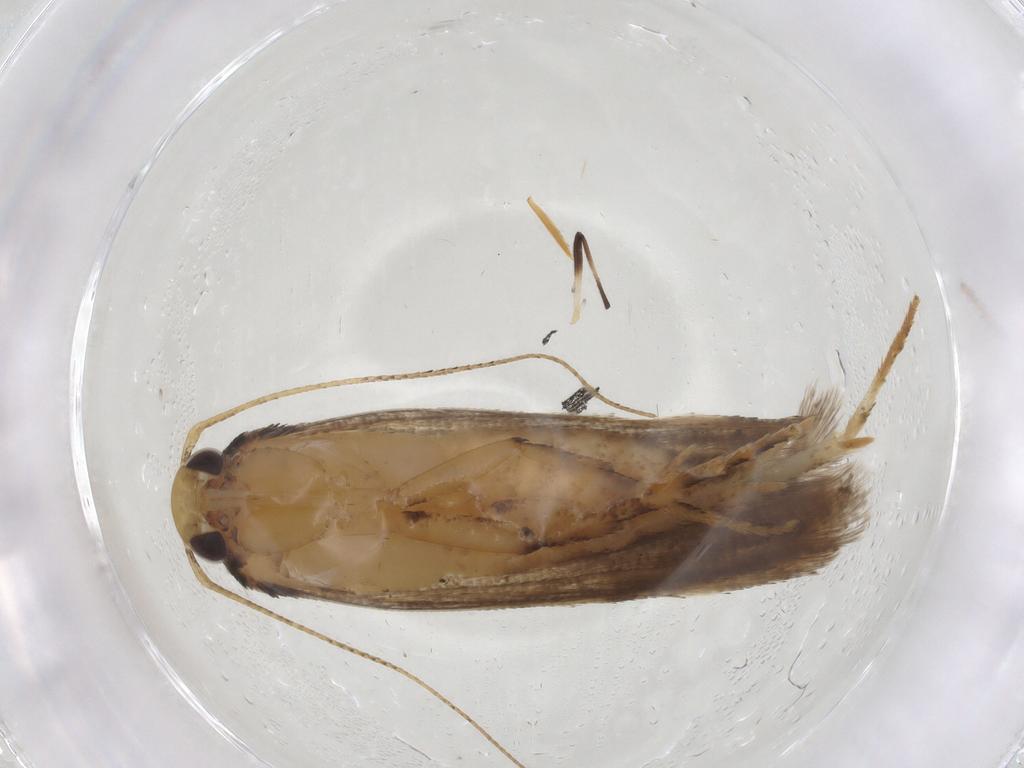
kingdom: Animalia
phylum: Arthropoda
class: Insecta
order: Lepidoptera
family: Gelechiidae
